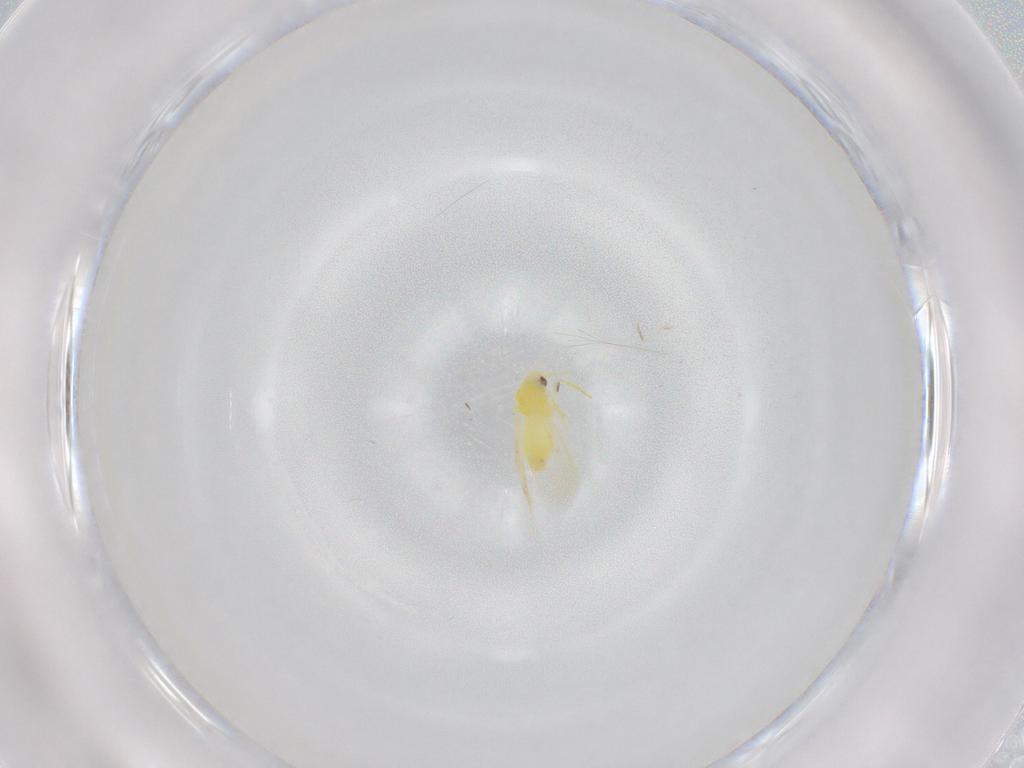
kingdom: Animalia
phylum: Arthropoda
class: Insecta
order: Hemiptera
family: Aleyrodidae
